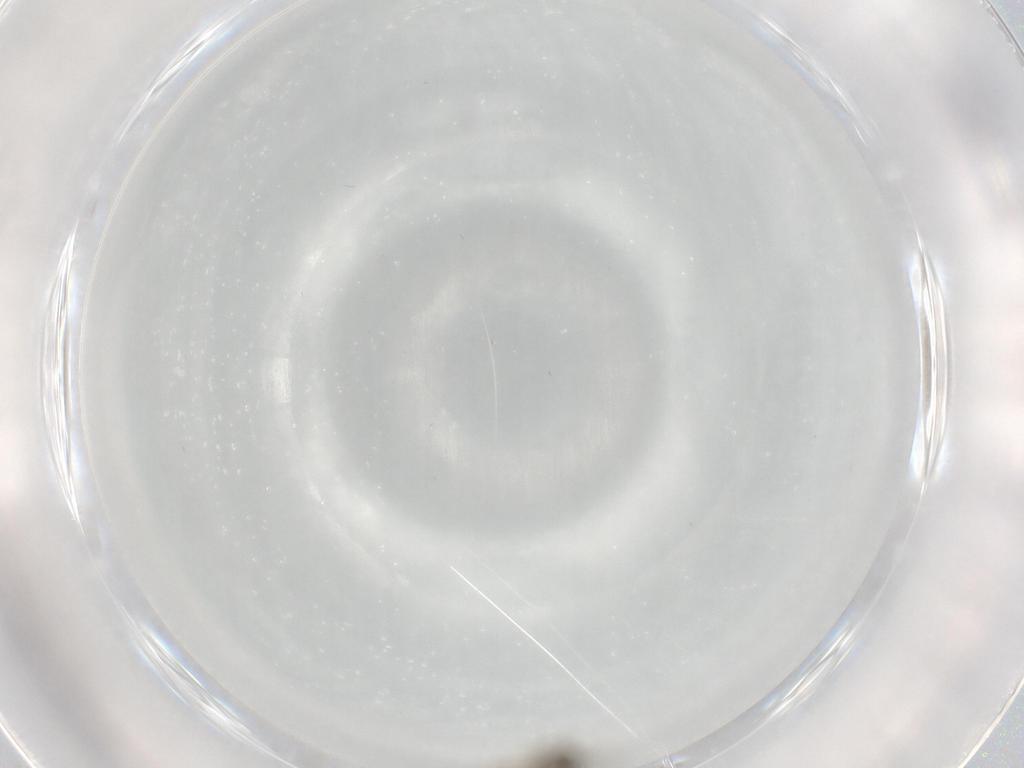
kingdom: Animalia
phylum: Arthropoda
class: Insecta
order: Diptera
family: Cecidomyiidae
